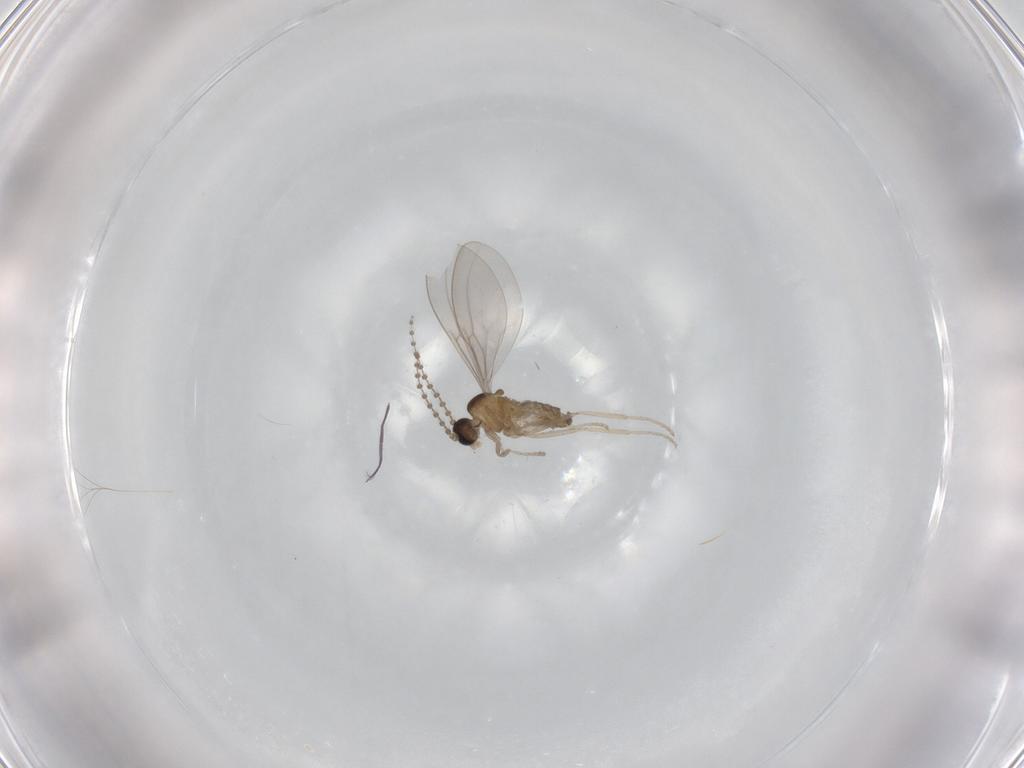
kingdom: Animalia
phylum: Arthropoda
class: Insecta
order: Diptera
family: Cecidomyiidae
